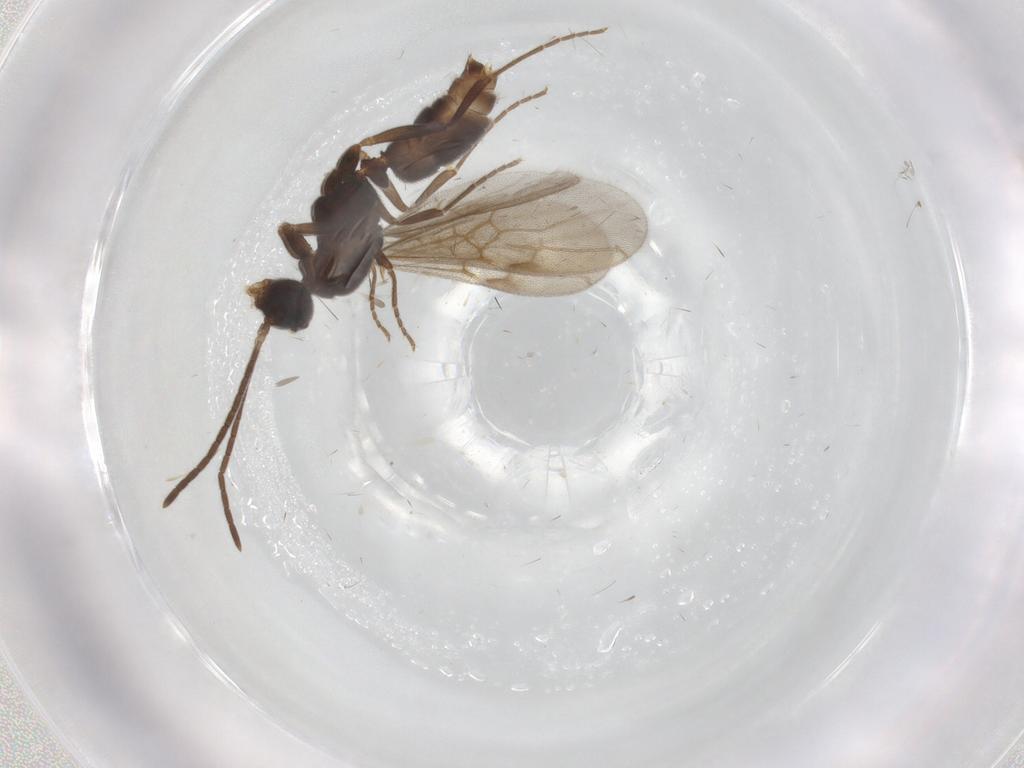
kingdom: Animalia
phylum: Arthropoda
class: Insecta
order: Hymenoptera
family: Formicidae
